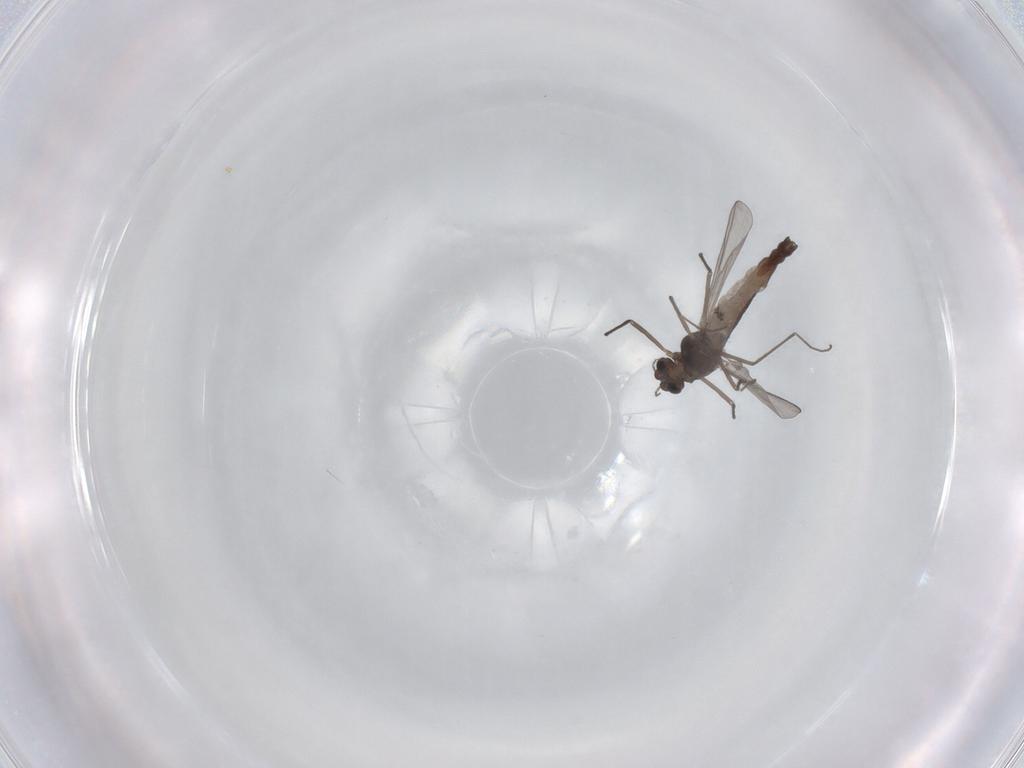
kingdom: Animalia
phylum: Arthropoda
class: Insecta
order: Diptera
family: Chironomidae
